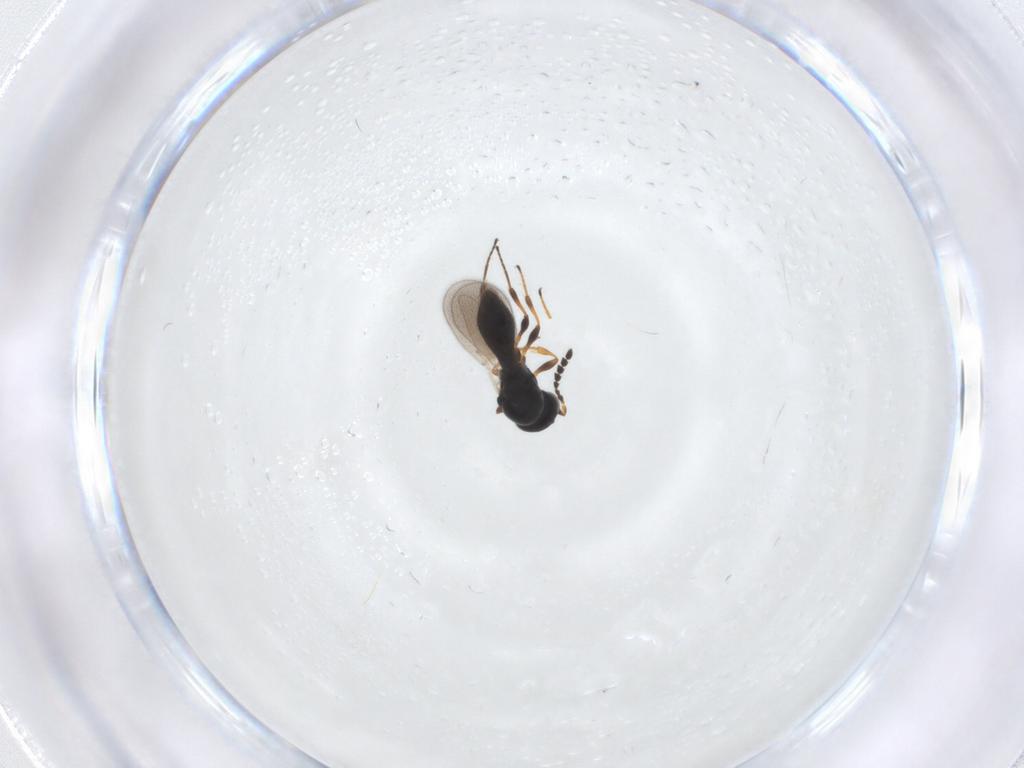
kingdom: Animalia
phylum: Arthropoda
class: Insecta
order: Hymenoptera
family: Platygastridae
